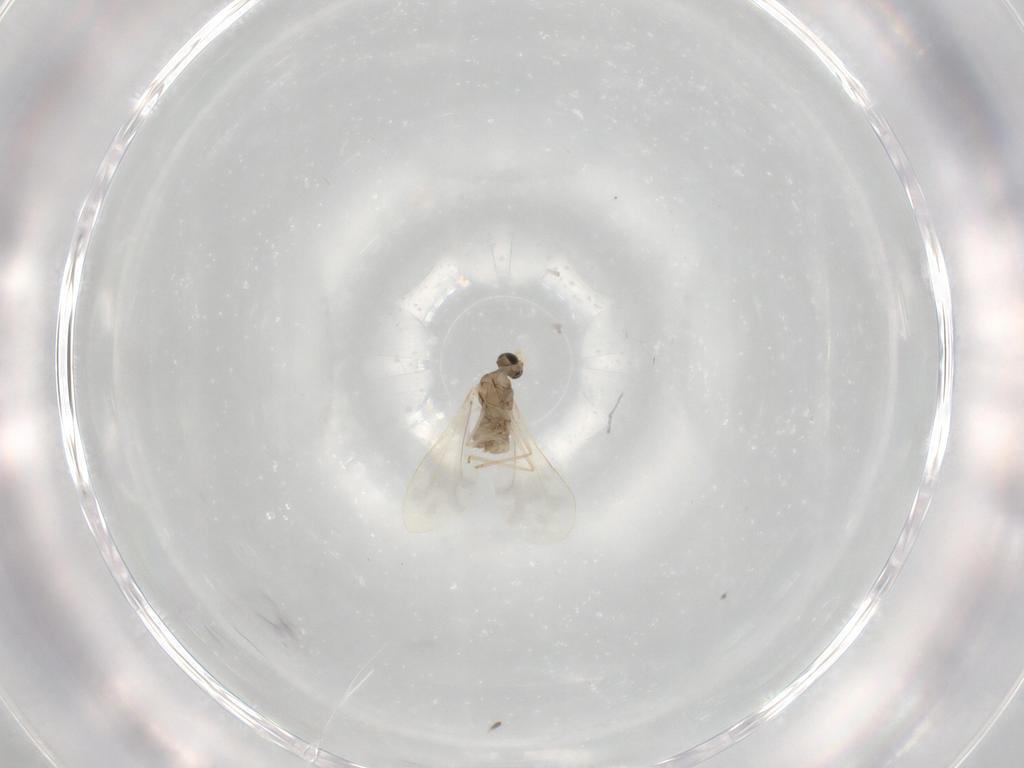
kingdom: Animalia
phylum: Arthropoda
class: Insecta
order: Diptera
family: Cecidomyiidae
